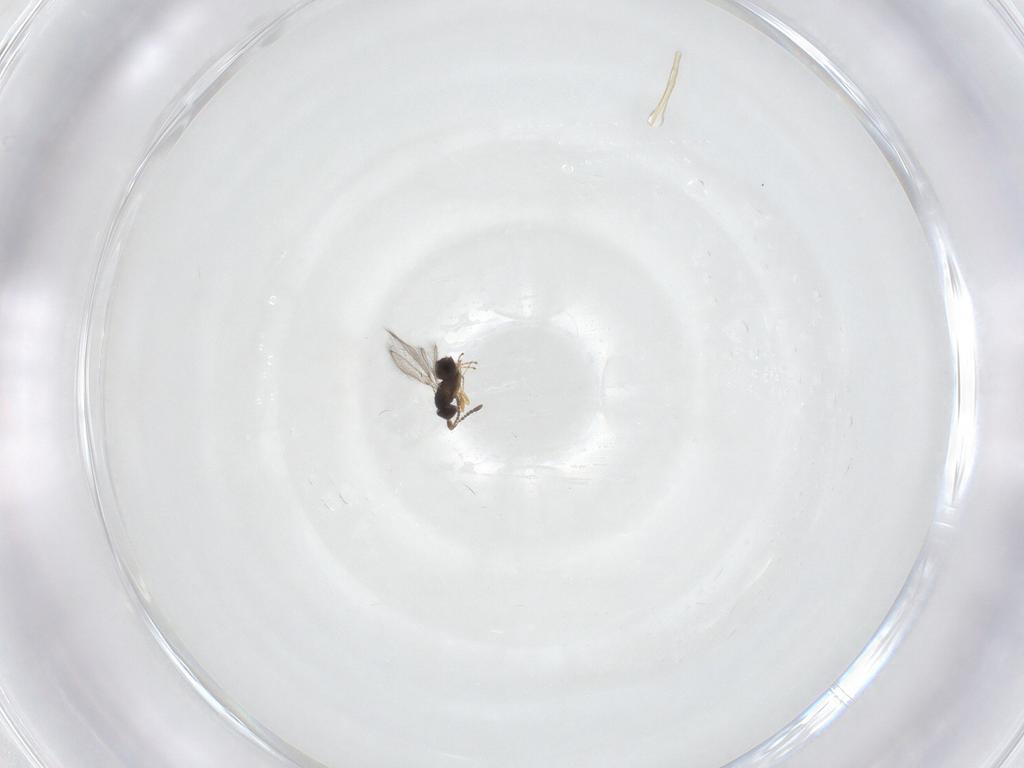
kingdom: Animalia
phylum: Arthropoda
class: Insecta
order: Hymenoptera
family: Mymaridae
